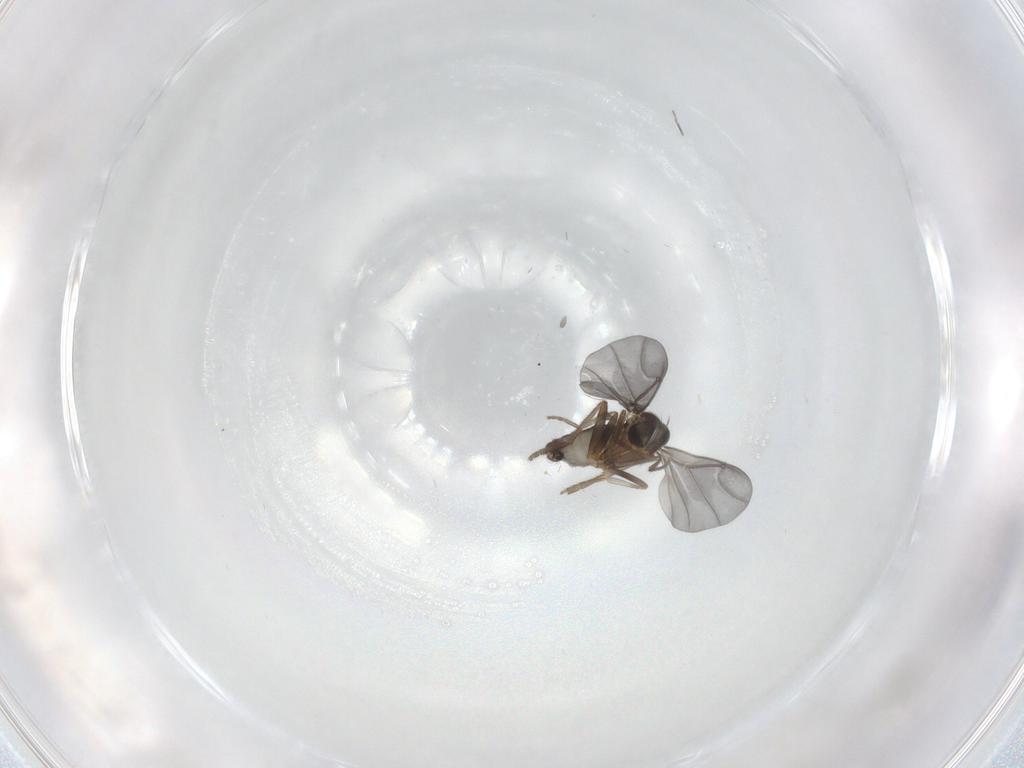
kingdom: Animalia
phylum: Arthropoda
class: Insecta
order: Diptera
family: Phoridae
